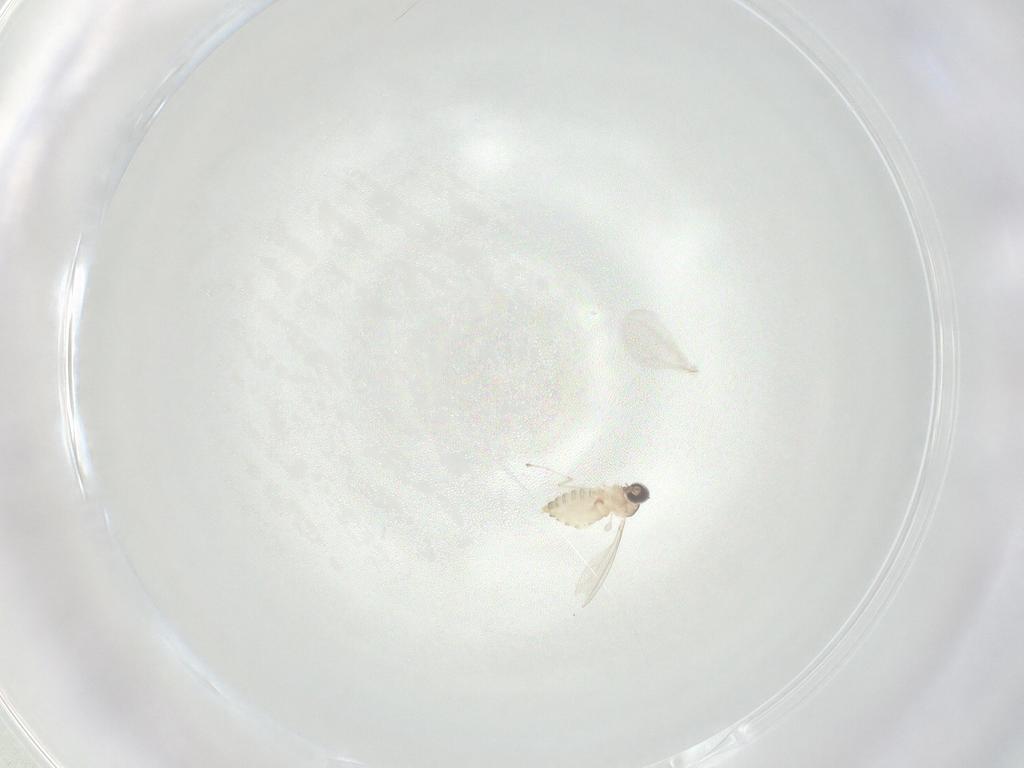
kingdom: Animalia
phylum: Arthropoda
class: Insecta
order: Diptera
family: Cecidomyiidae
